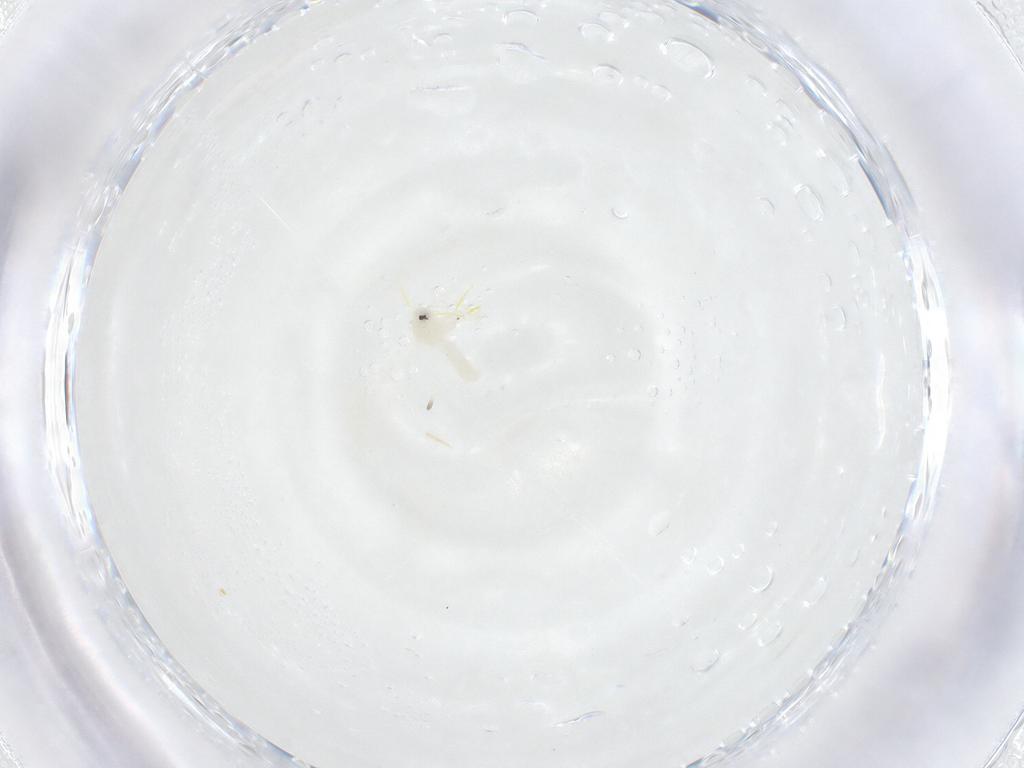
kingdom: Animalia
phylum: Arthropoda
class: Insecta
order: Hemiptera
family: Aleyrodidae
